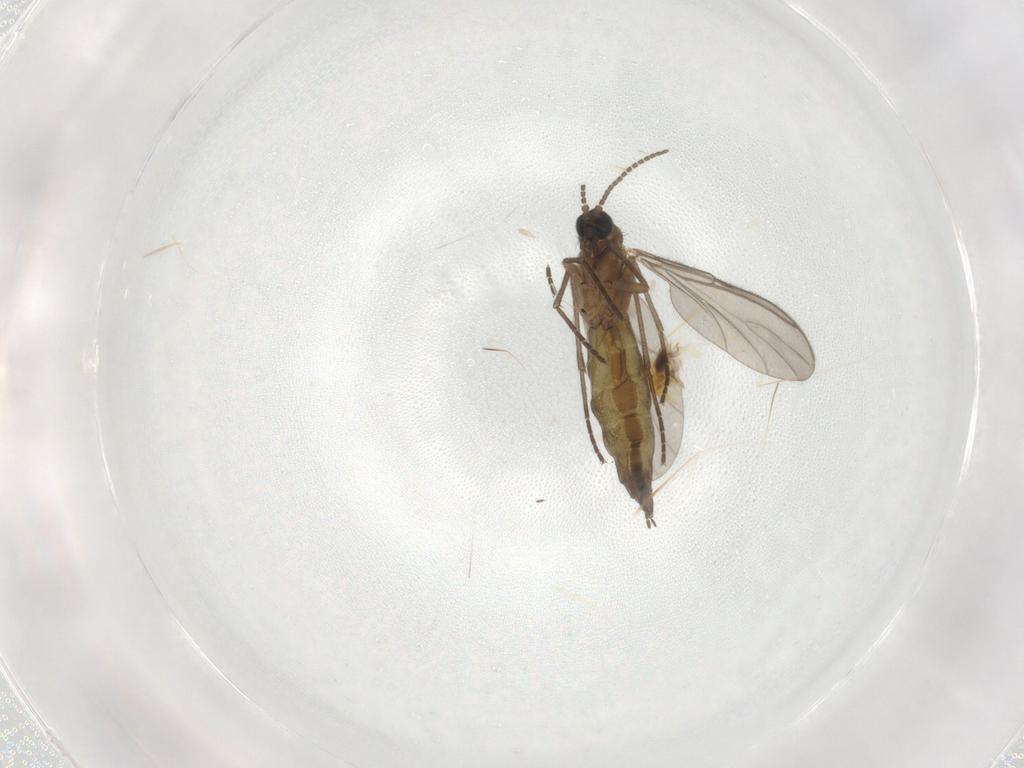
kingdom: Animalia
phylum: Arthropoda
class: Insecta
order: Diptera
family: Sciaridae
